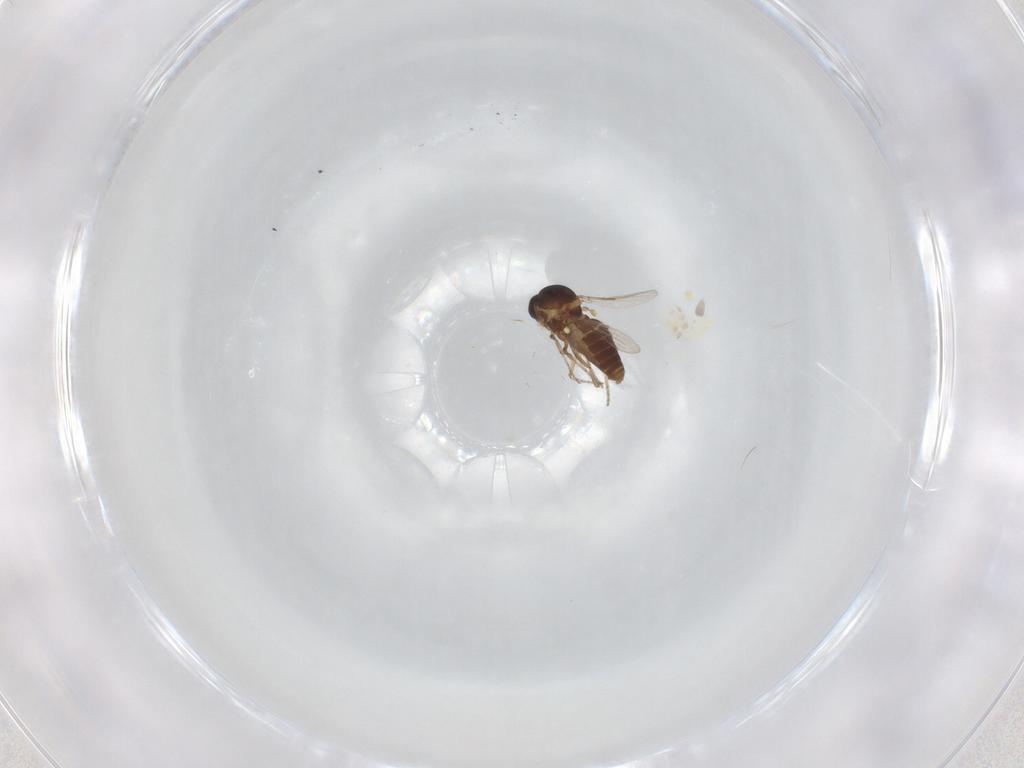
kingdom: Animalia
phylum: Arthropoda
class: Insecta
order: Diptera
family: Ceratopogonidae
